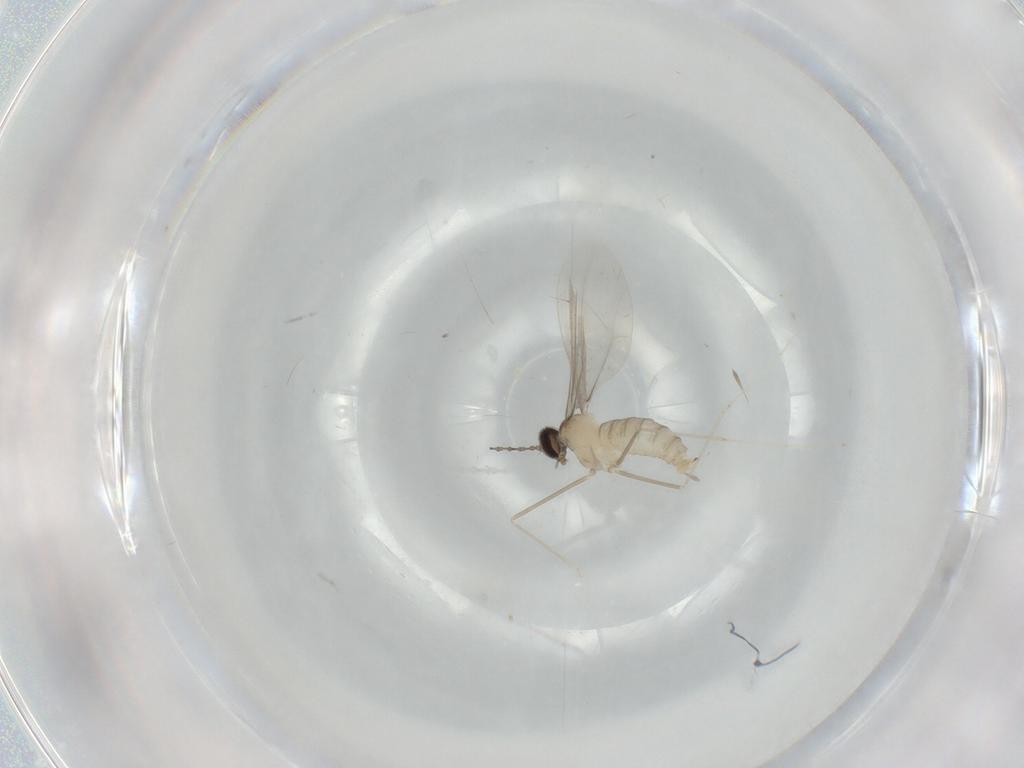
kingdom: Animalia
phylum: Arthropoda
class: Insecta
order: Diptera
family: Cecidomyiidae
